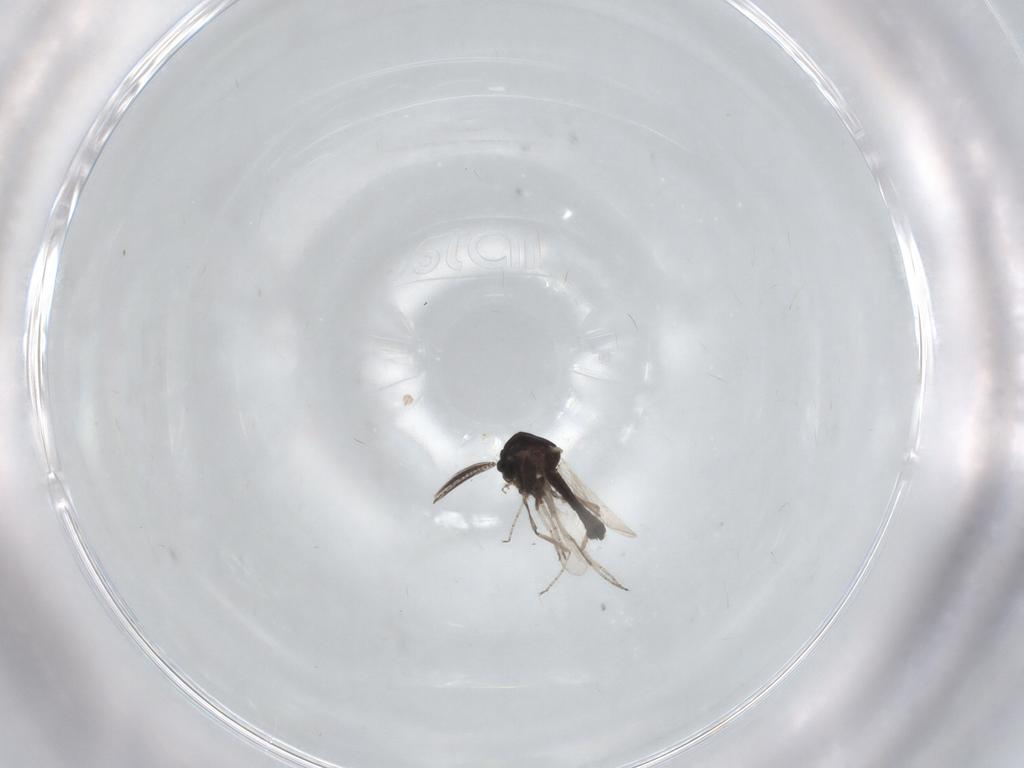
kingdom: Animalia
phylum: Arthropoda
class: Insecta
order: Diptera
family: Ceratopogonidae
